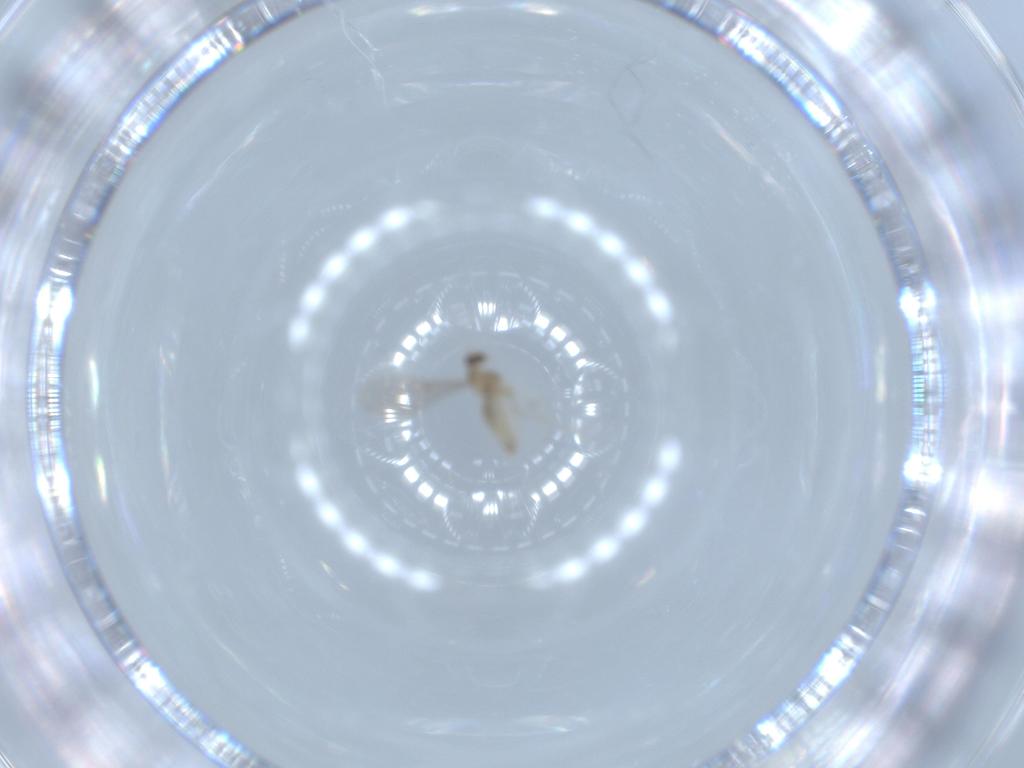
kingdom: Animalia
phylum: Arthropoda
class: Insecta
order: Diptera
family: Cecidomyiidae
